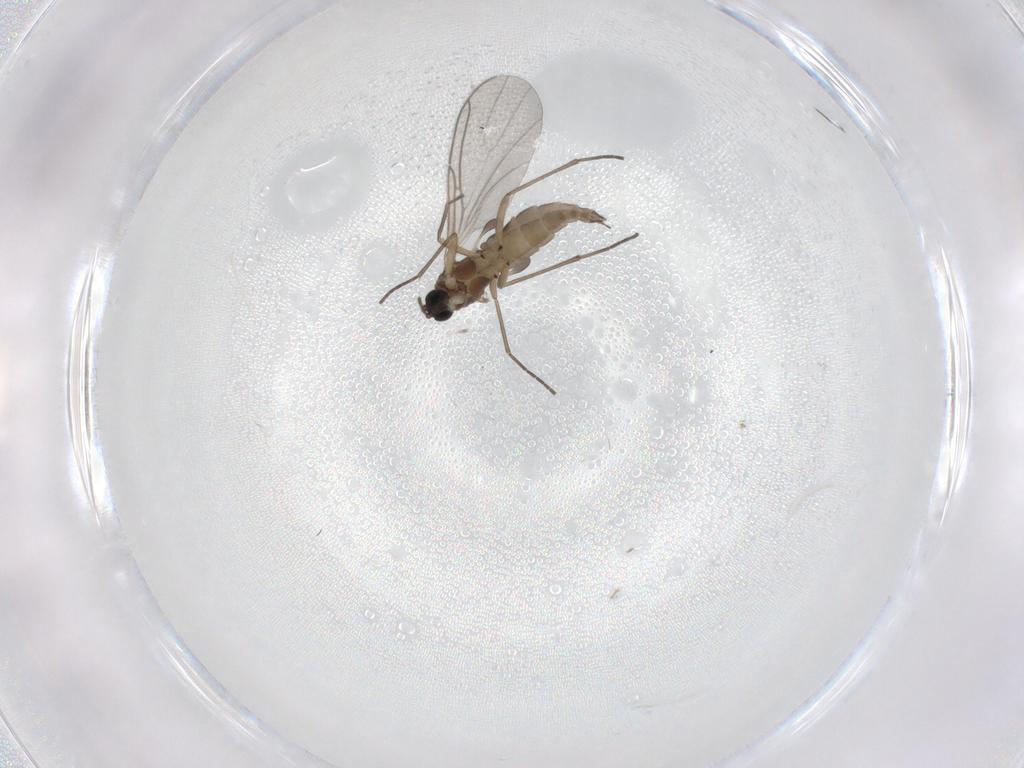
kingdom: Animalia
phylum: Arthropoda
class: Insecta
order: Diptera
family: Sciaridae
